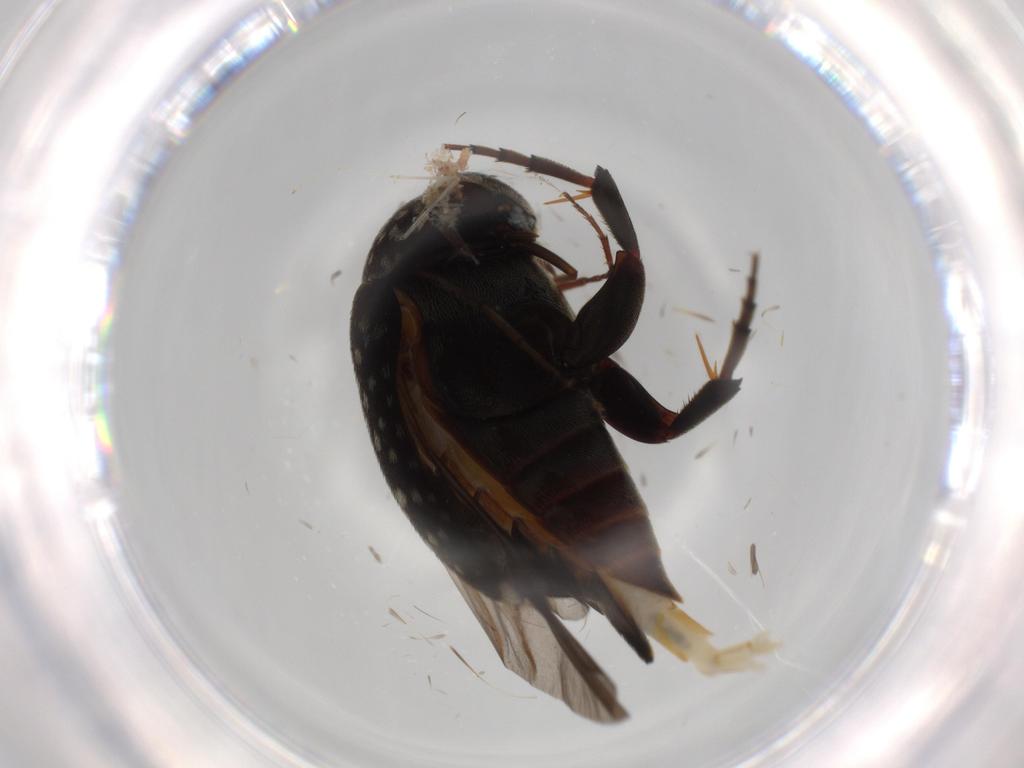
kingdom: Animalia
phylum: Arthropoda
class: Insecta
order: Coleoptera
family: Mordellidae
